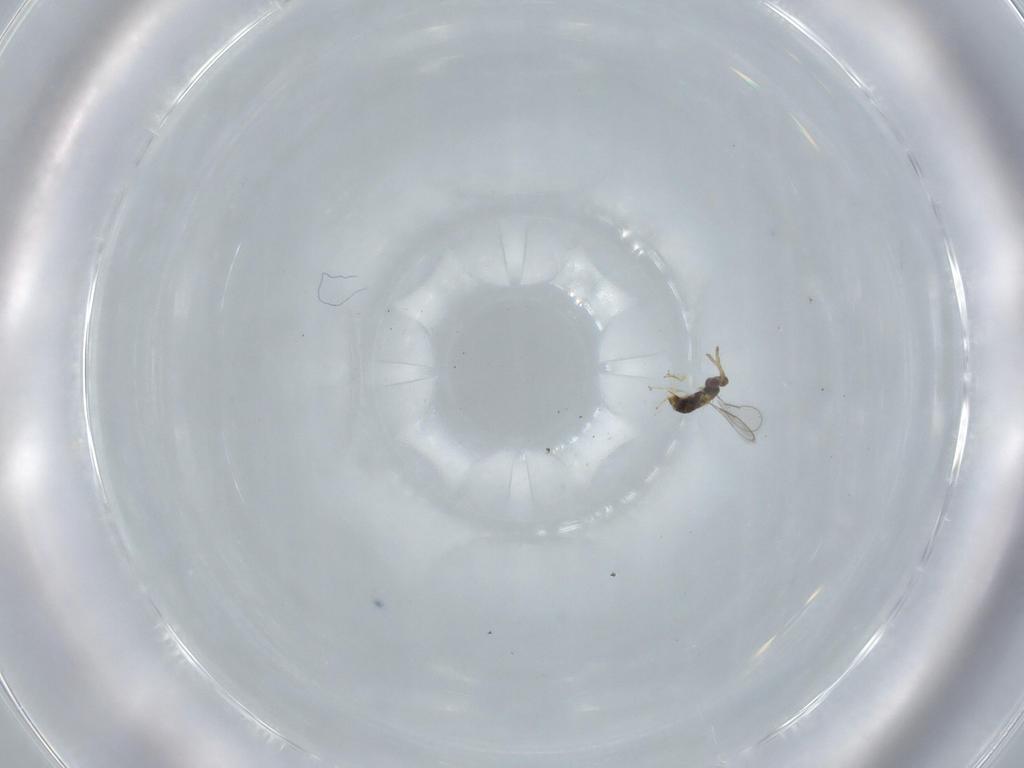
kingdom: Animalia
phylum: Arthropoda
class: Insecta
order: Hymenoptera
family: Aphelinidae
